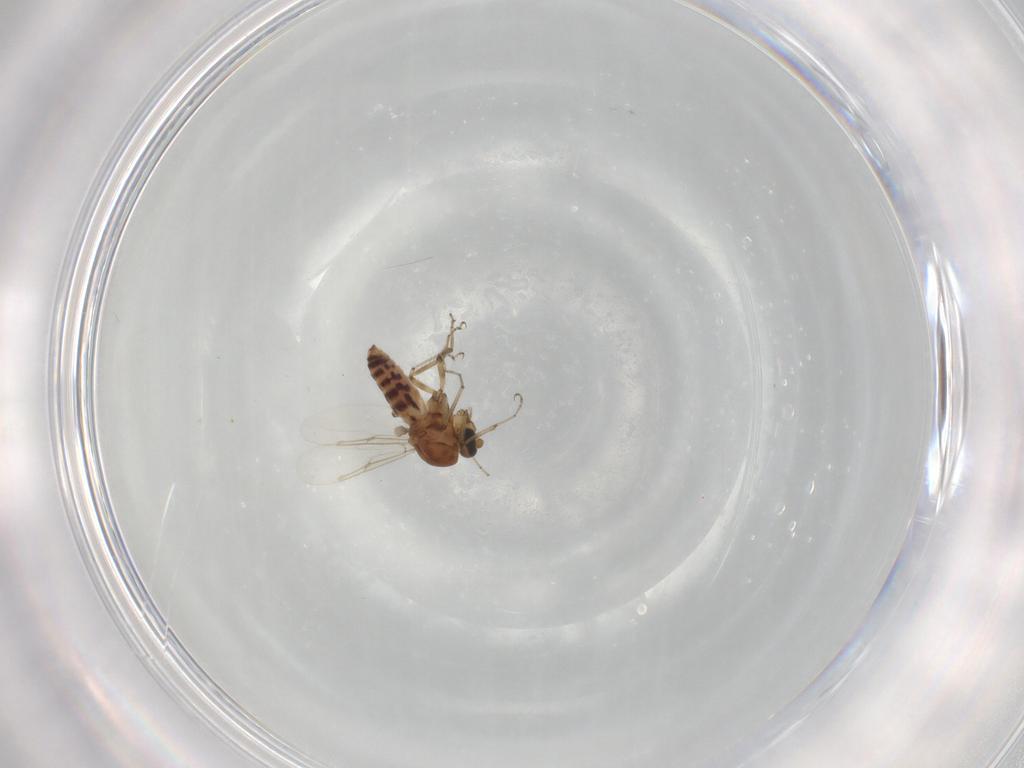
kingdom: Animalia
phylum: Arthropoda
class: Insecta
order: Diptera
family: Ceratopogonidae
